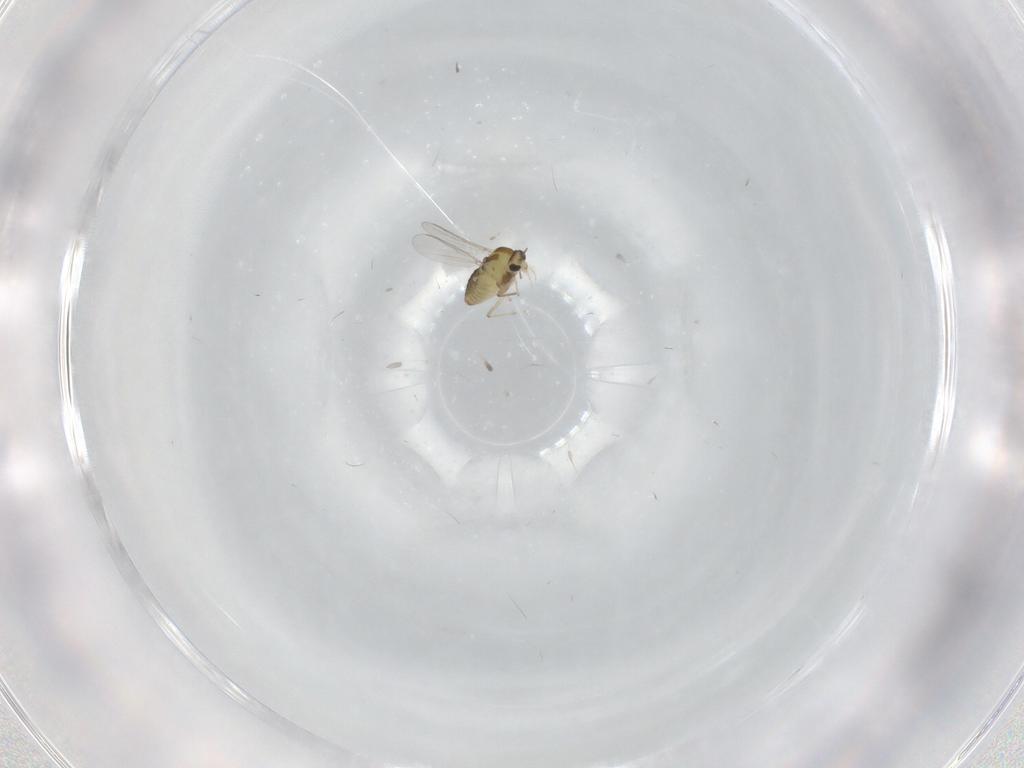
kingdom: Animalia
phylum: Arthropoda
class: Insecta
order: Diptera
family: Chironomidae
